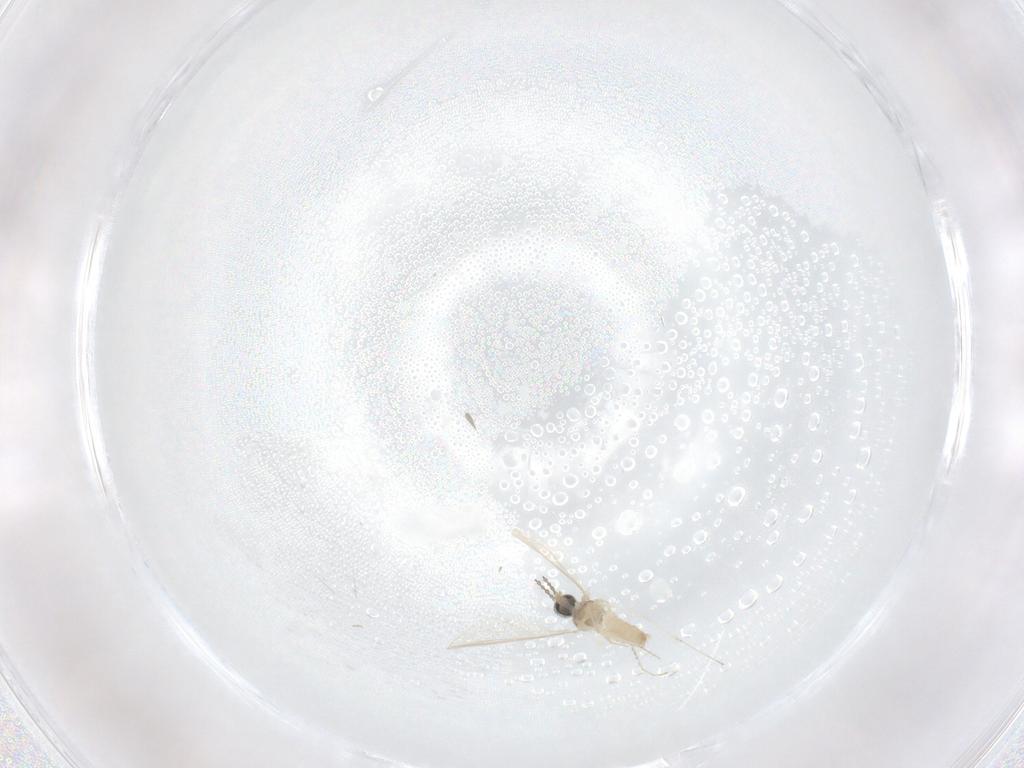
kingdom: Animalia
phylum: Arthropoda
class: Insecta
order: Diptera
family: Cecidomyiidae
